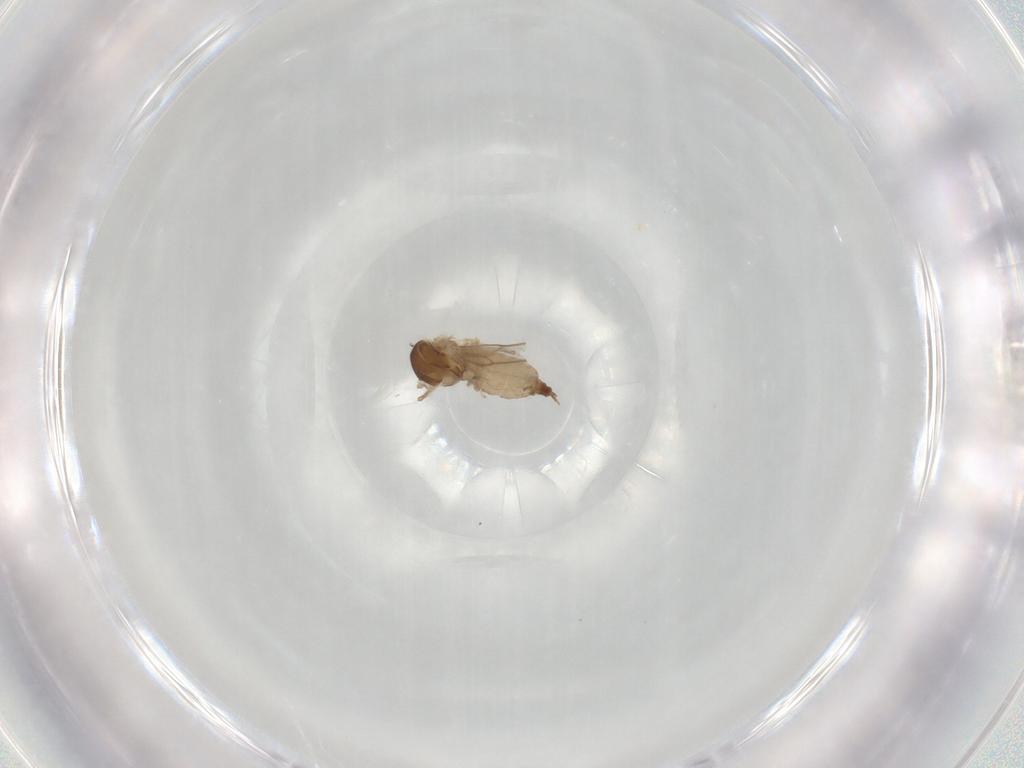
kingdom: Animalia
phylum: Arthropoda
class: Insecta
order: Diptera
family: Cecidomyiidae
